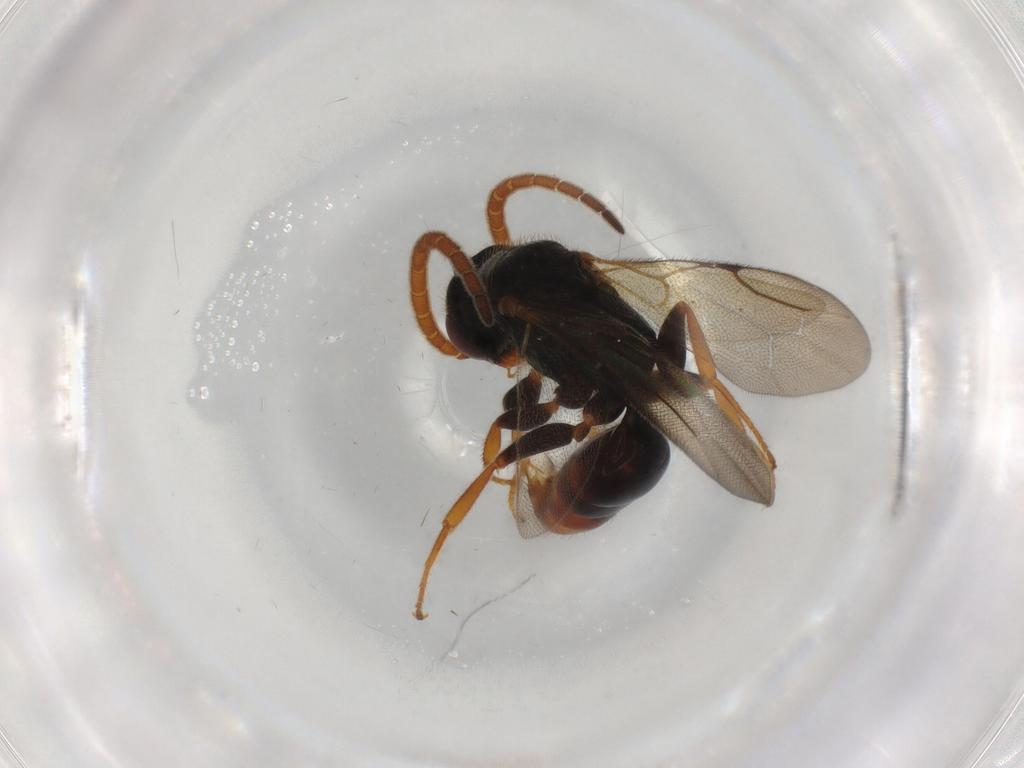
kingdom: Animalia
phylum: Arthropoda
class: Insecta
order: Hymenoptera
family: Bethylidae
